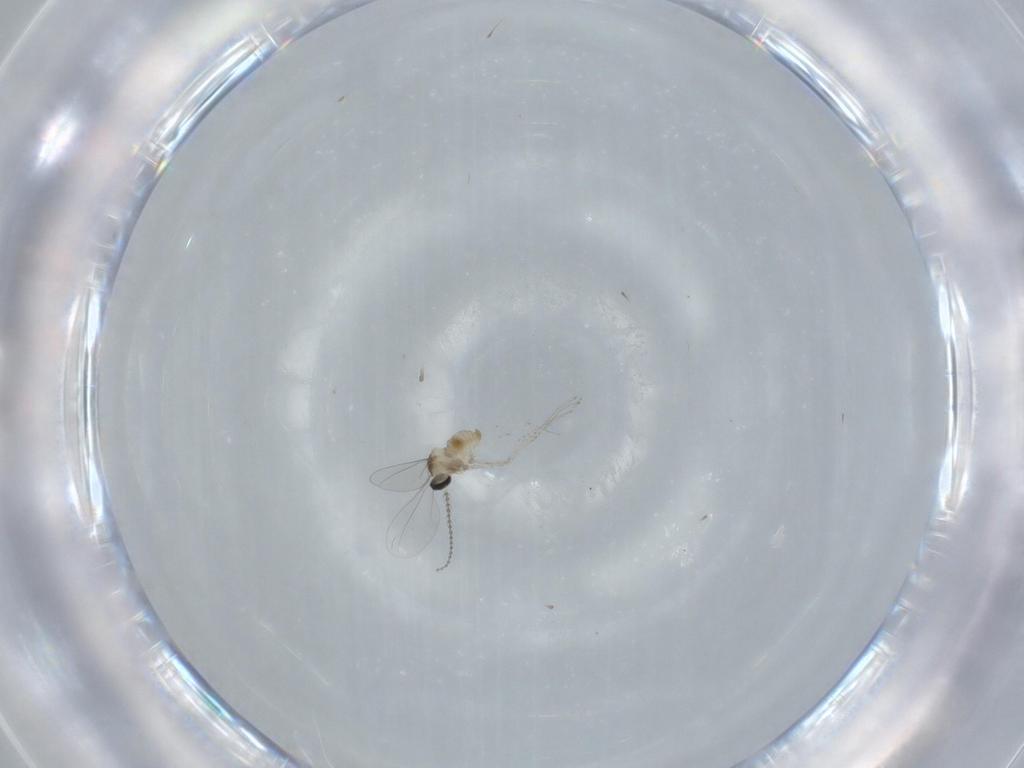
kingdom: Animalia
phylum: Arthropoda
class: Insecta
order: Diptera
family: Cecidomyiidae
